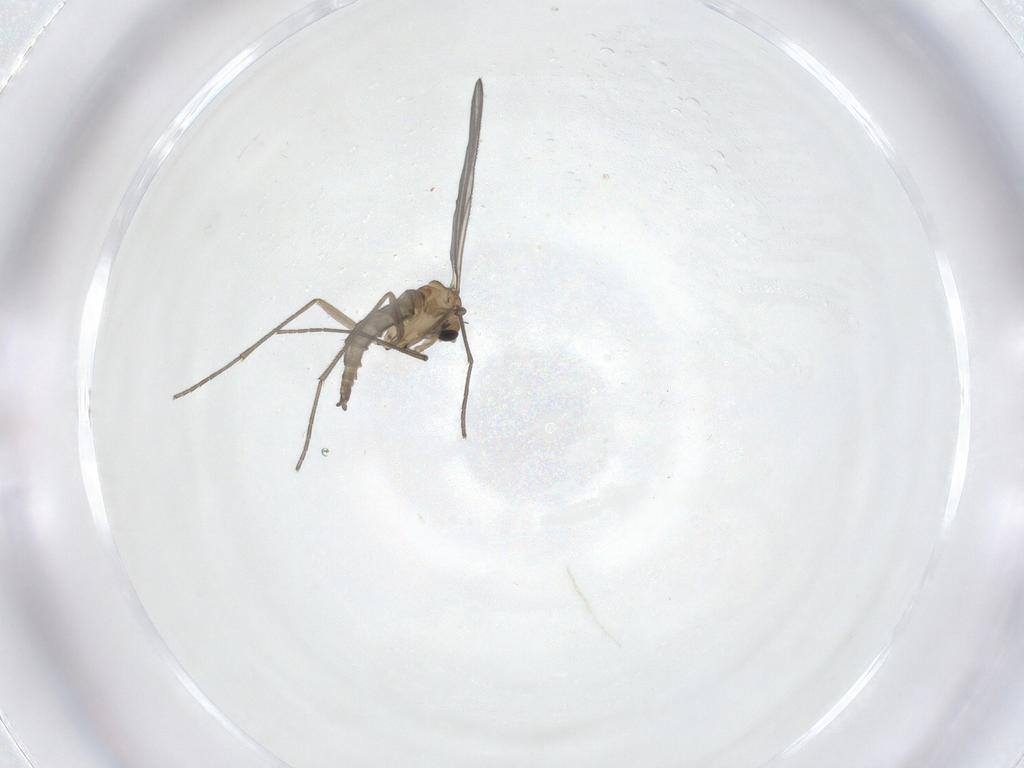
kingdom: Animalia
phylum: Arthropoda
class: Insecta
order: Diptera
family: Sciaridae
